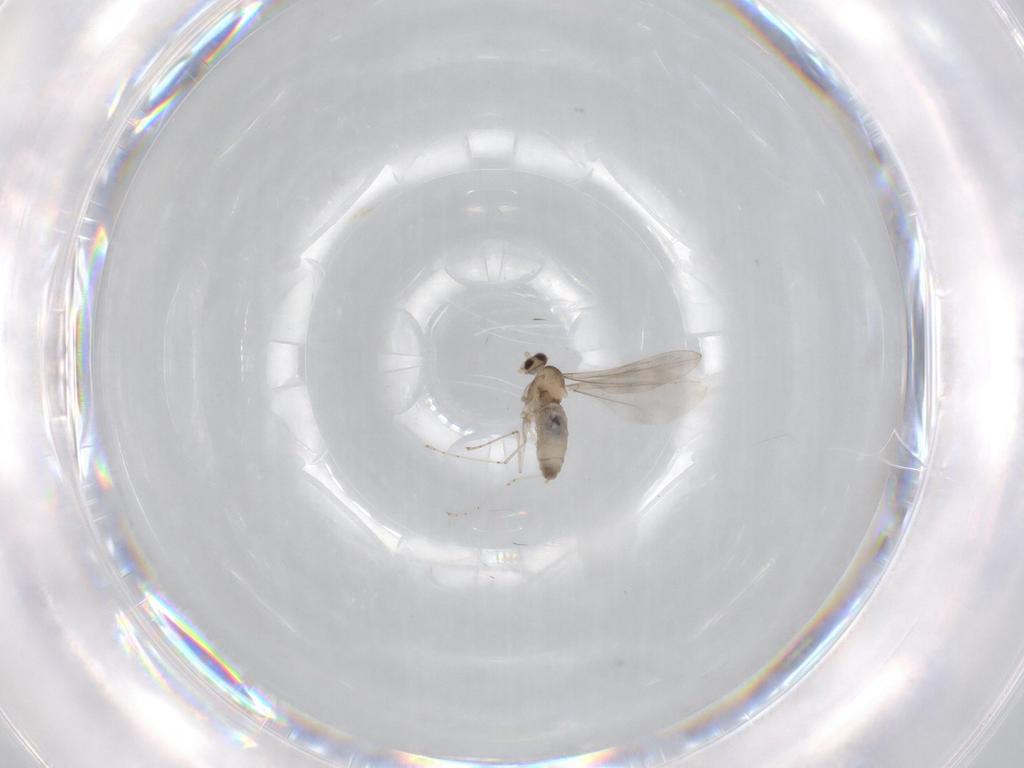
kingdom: Animalia
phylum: Arthropoda
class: Insecta
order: Diptera
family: Cecidomyiidae
